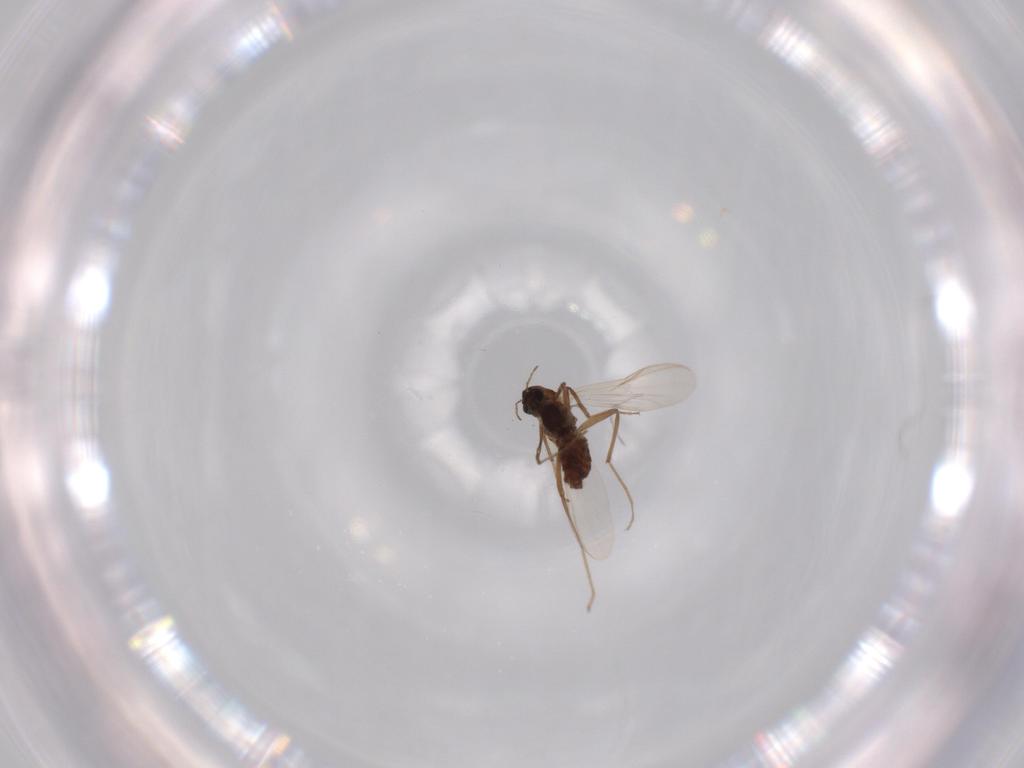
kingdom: Animalia
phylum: Arthropoda
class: Insecta
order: Diptera
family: Chironomidae
